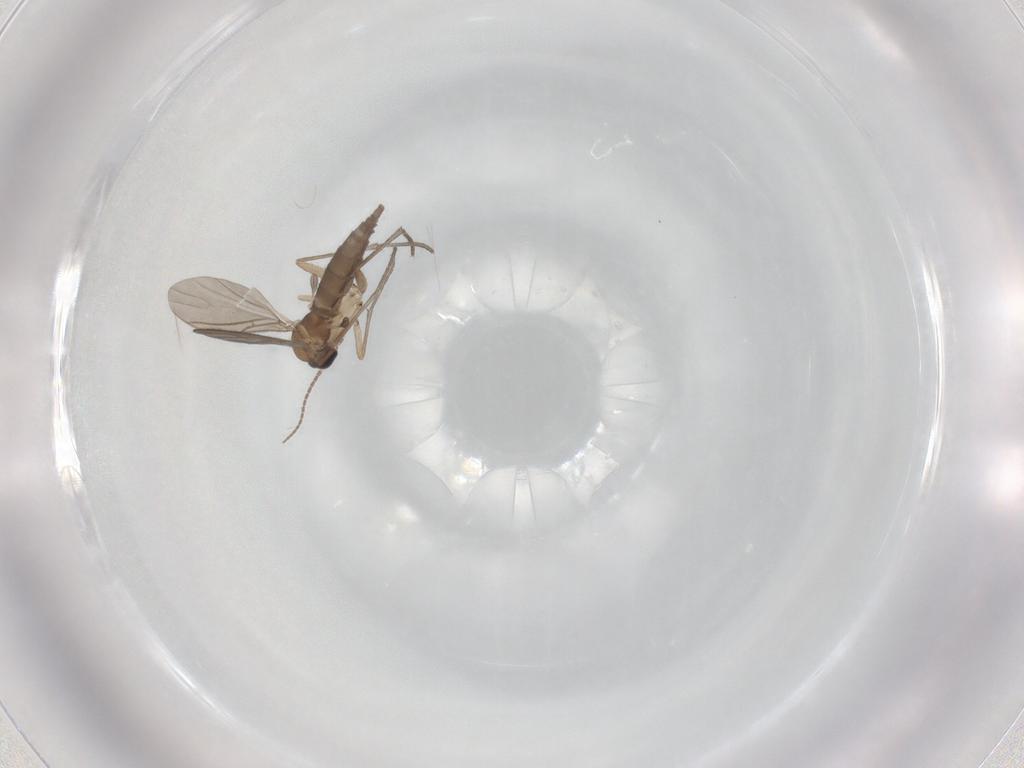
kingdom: Animalia
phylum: Arthropoda
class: Insecta
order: Diptera
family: Sciaridae
